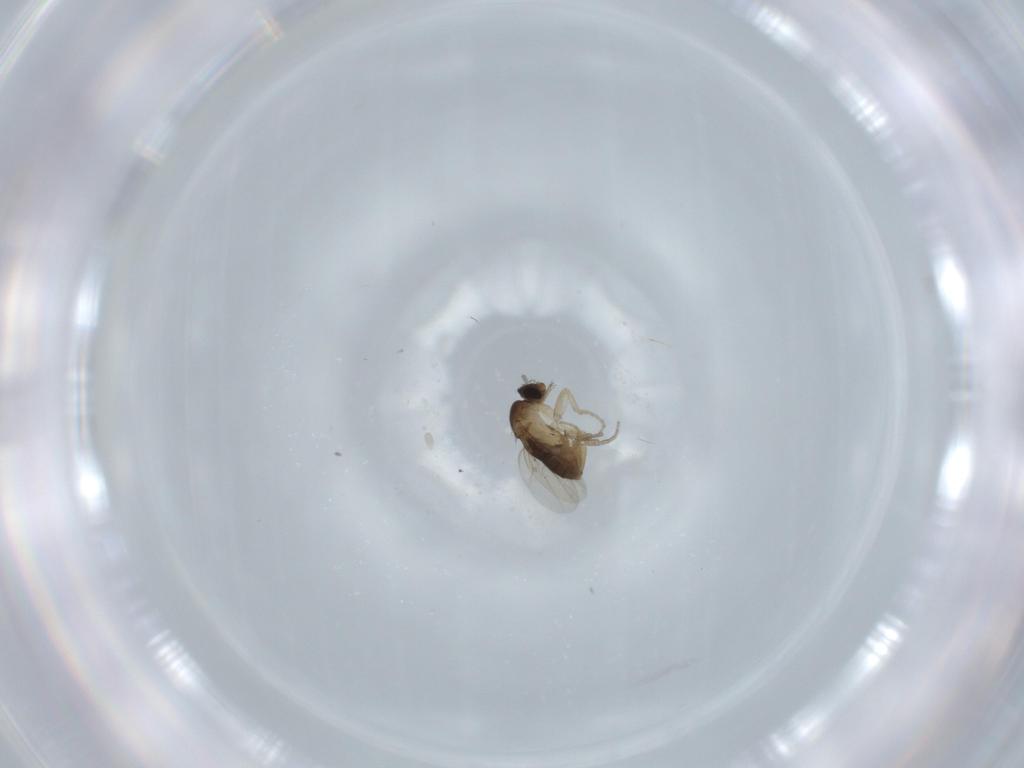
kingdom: Animalia
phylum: Arthropoda
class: Insecta
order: Diptera
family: Phoridae
